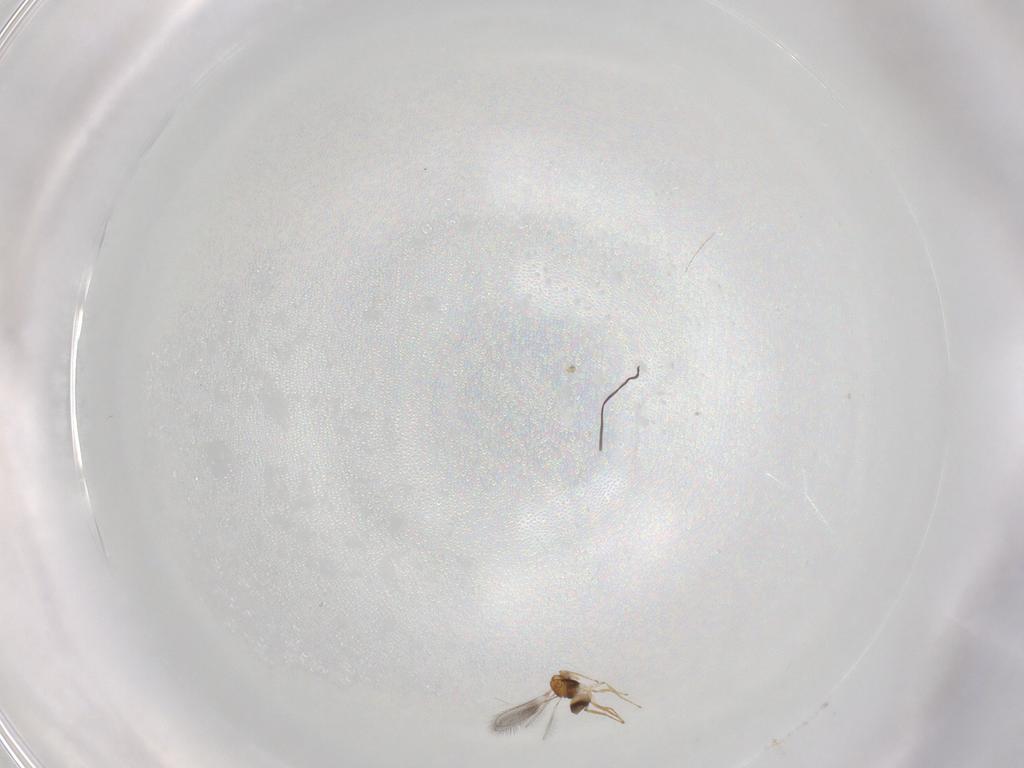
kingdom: Animalia
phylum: Arthropoda
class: Insecta
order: Hymenoptera
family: Mymaridae
